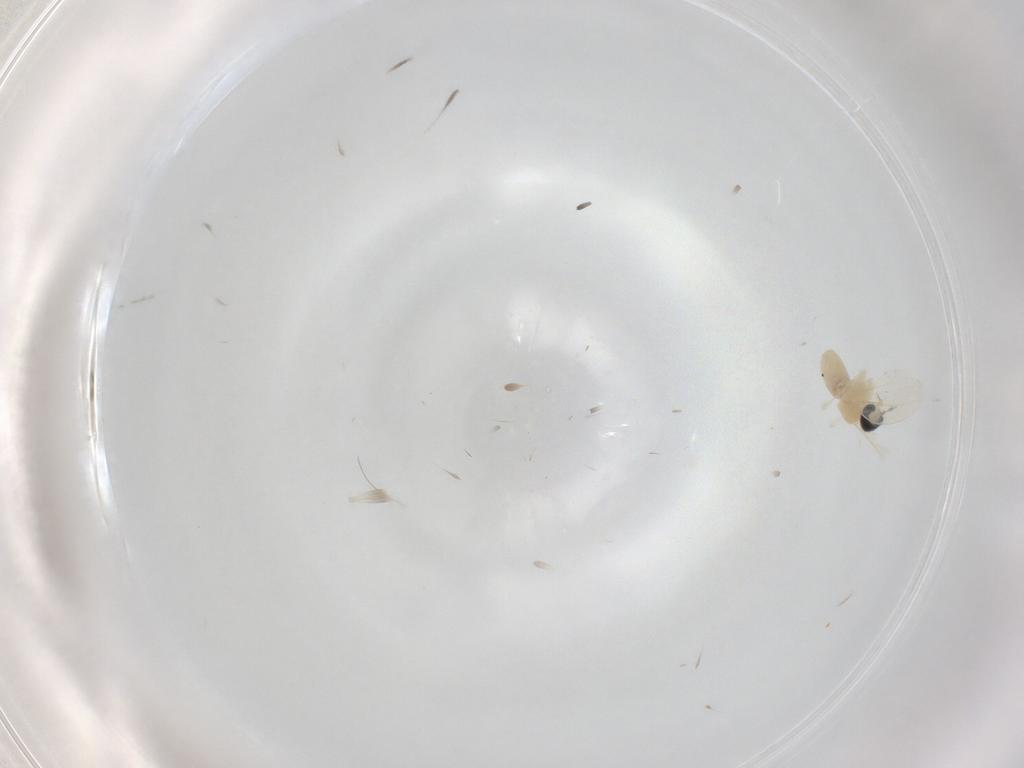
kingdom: Animalia
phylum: Arthropoda
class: Insecta
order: Diptera
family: Cecidomyiidae
